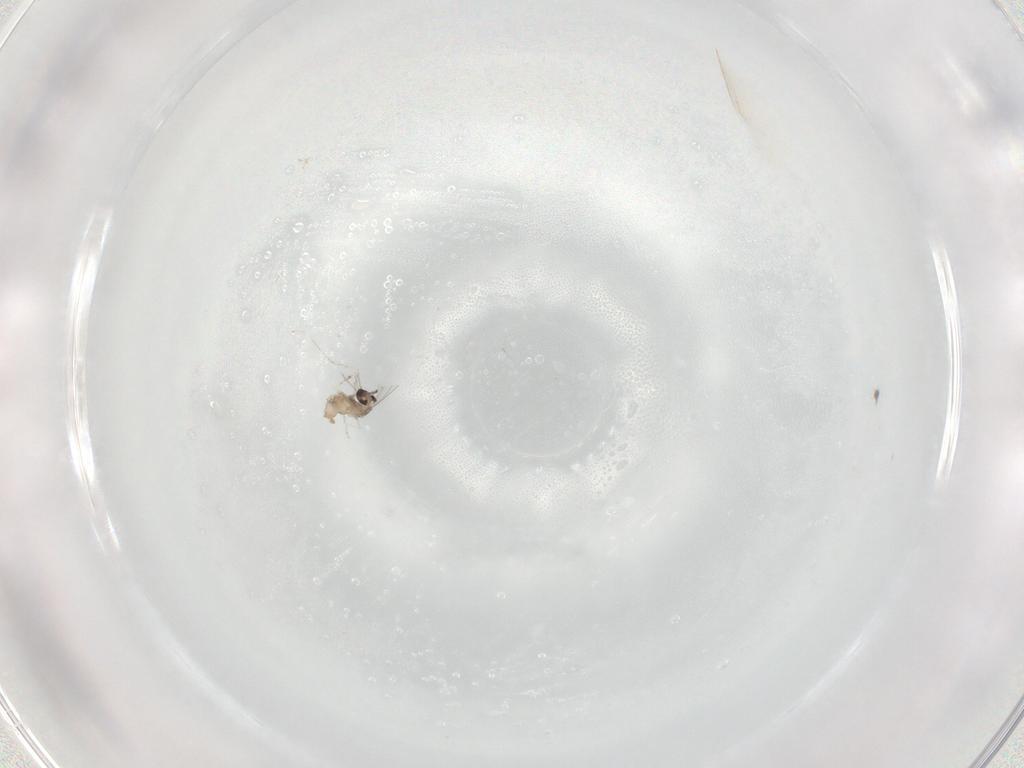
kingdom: Animalia
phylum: Arthropoda
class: Insecta
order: Diptera
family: Cecidomyiidae
